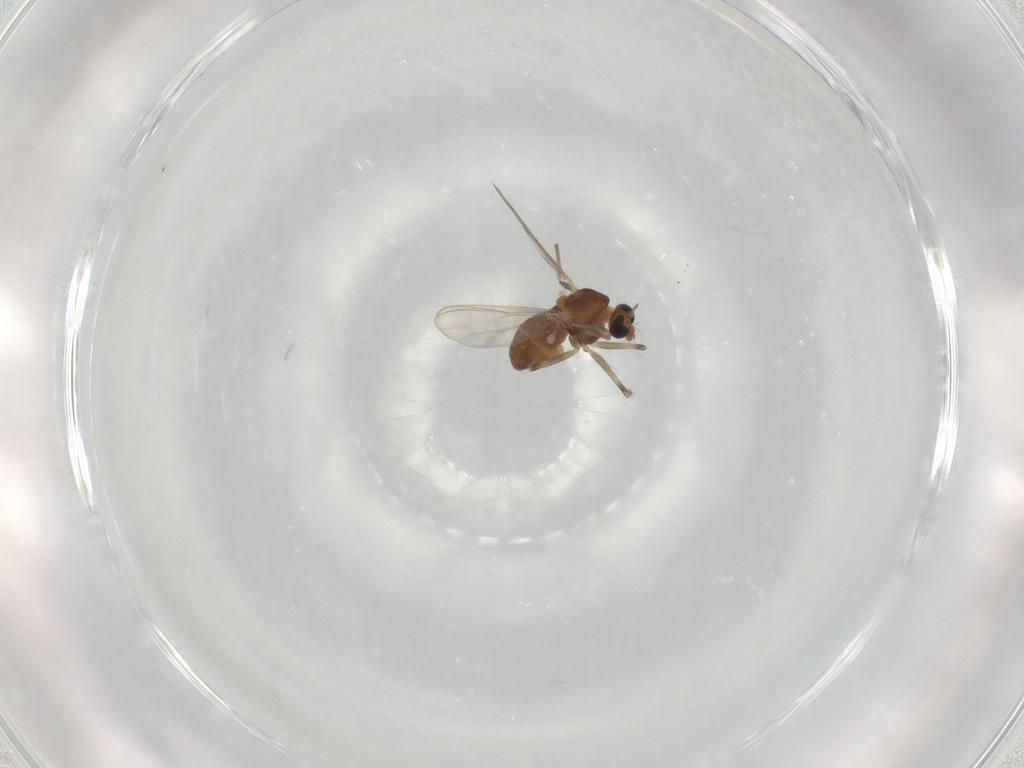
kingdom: Animalia
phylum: Arthropoda
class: Insecta
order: Diptera
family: Chironomidae
